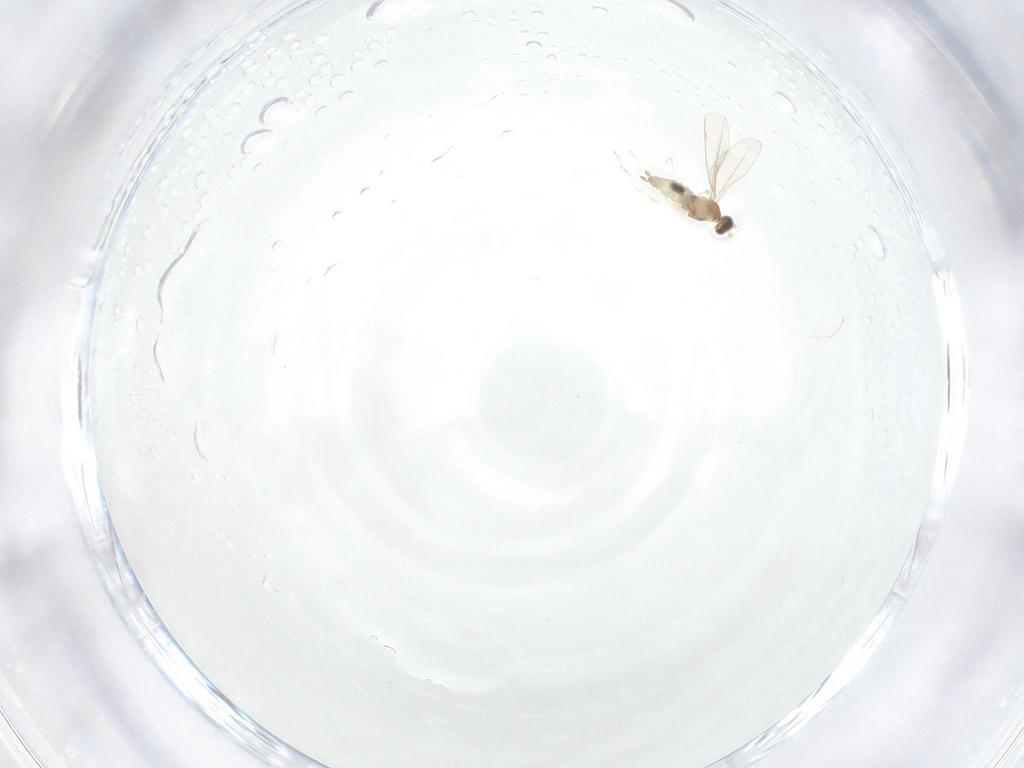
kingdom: Animalia
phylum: Arthropoda
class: Insecta
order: Diptera
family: Cecidomyiidae
